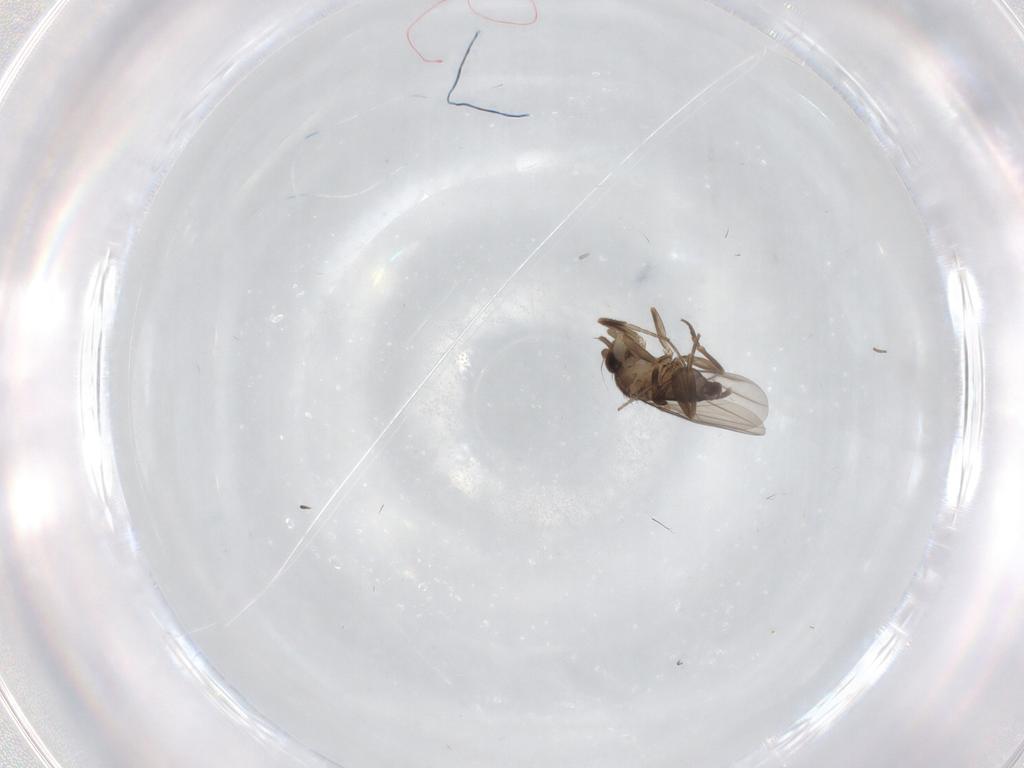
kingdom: Animalia
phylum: Arthropoda
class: Insecta
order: Diptera
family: Phoridae
